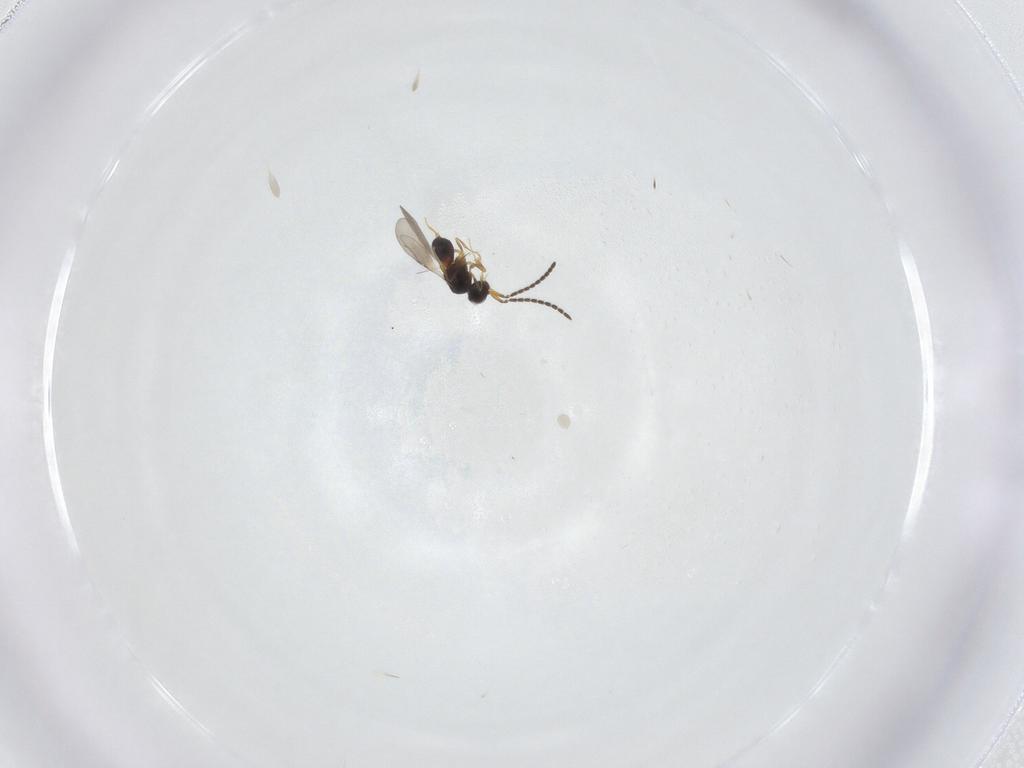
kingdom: Animalia
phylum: Arthropoda
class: Insecta
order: Hymenoptera
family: Ceraphronidae
